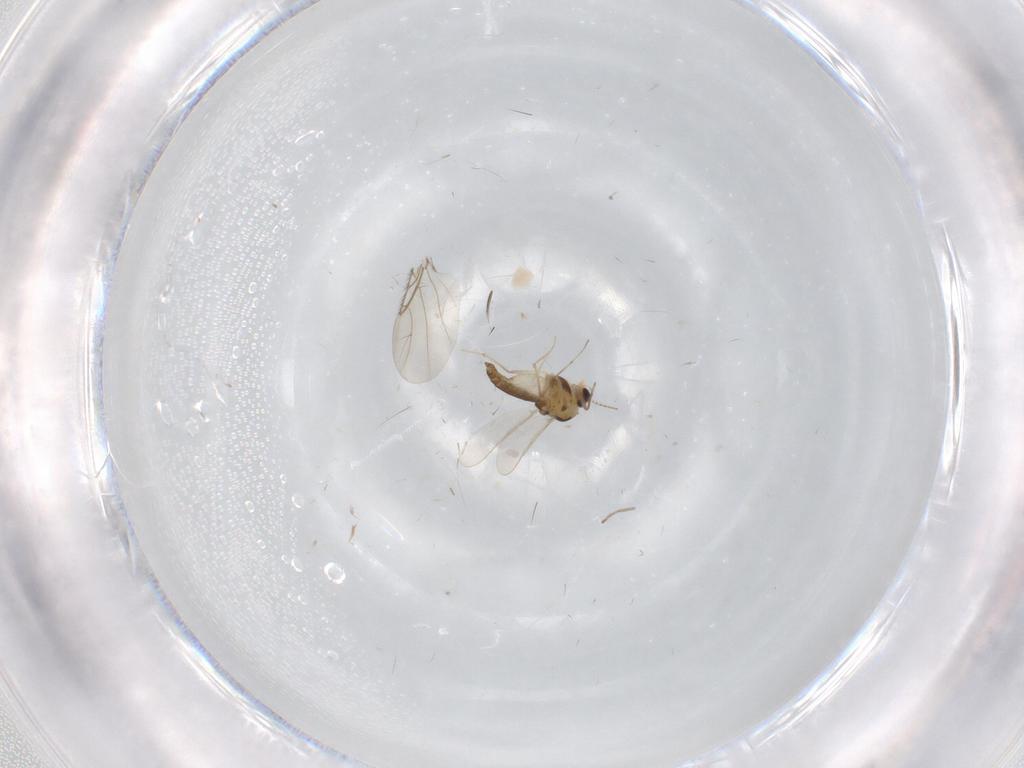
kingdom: Animalia
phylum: Arthropoda
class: Insecta
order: Diptera
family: Chironomidae
